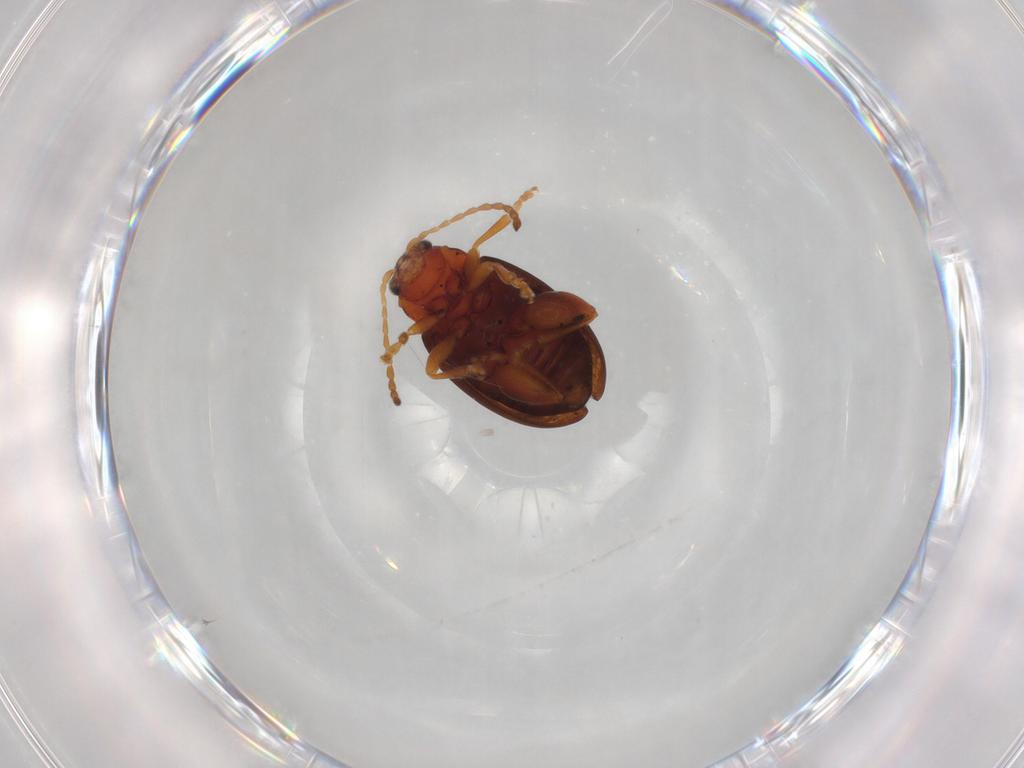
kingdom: Animalia
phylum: Arthropoda
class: Insecta
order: Coleoptera
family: Chrysomelidae
